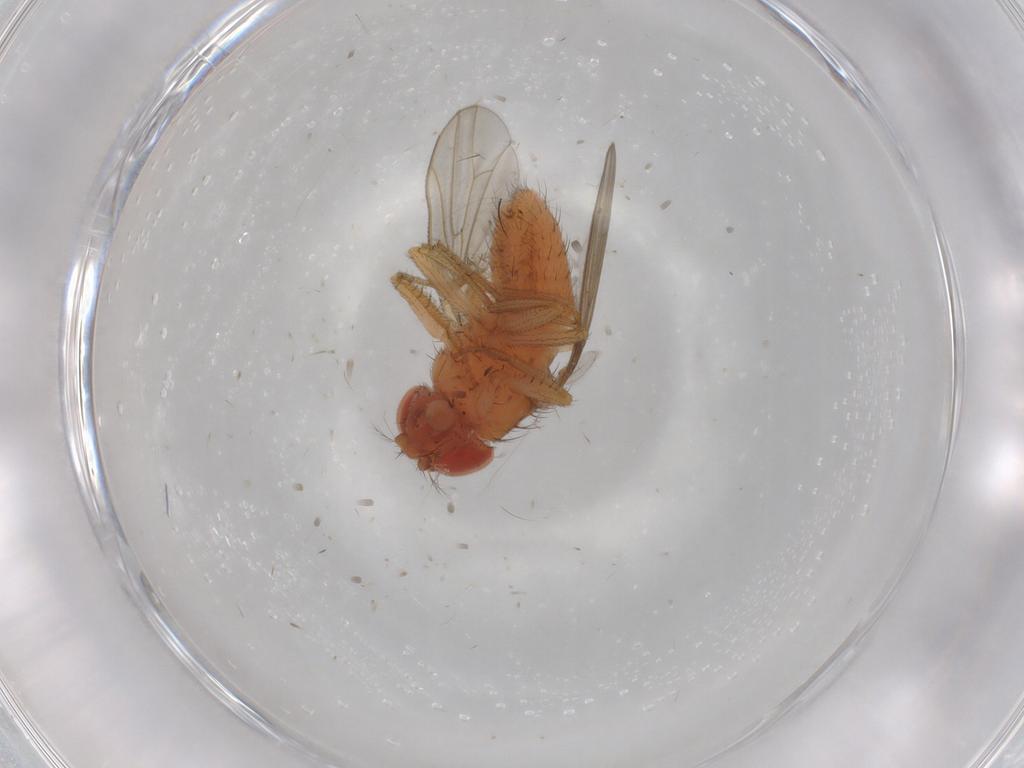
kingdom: Animalia
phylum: Arthropoda
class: Insecta
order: Diptera
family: Drosophilidae
